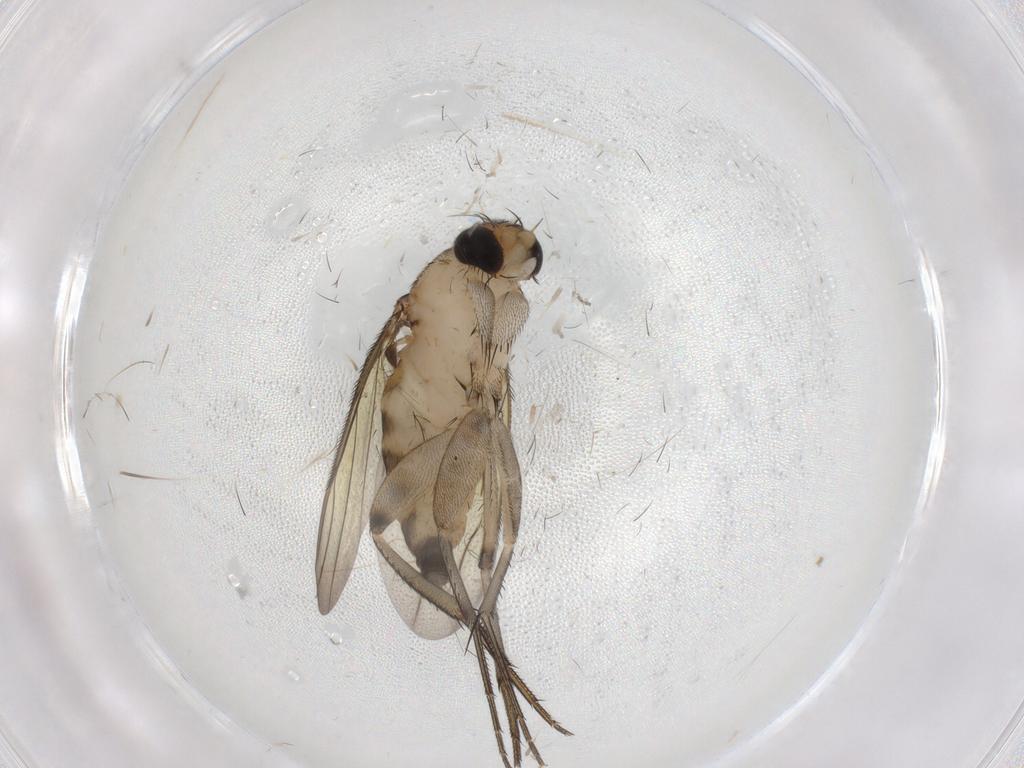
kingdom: Animalia
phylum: Arthropoda
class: Insecta
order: Diptera
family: Phoridae
